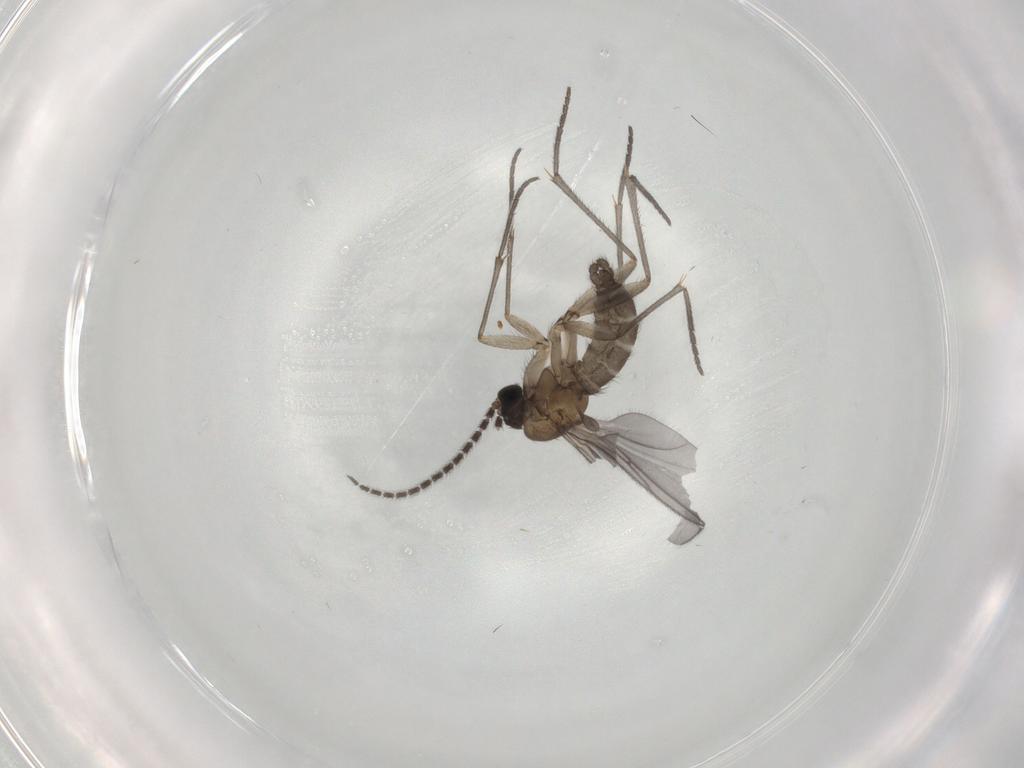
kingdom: Animalia
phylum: Arthropoda
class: Insecta
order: Diptera
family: Sciaridae
